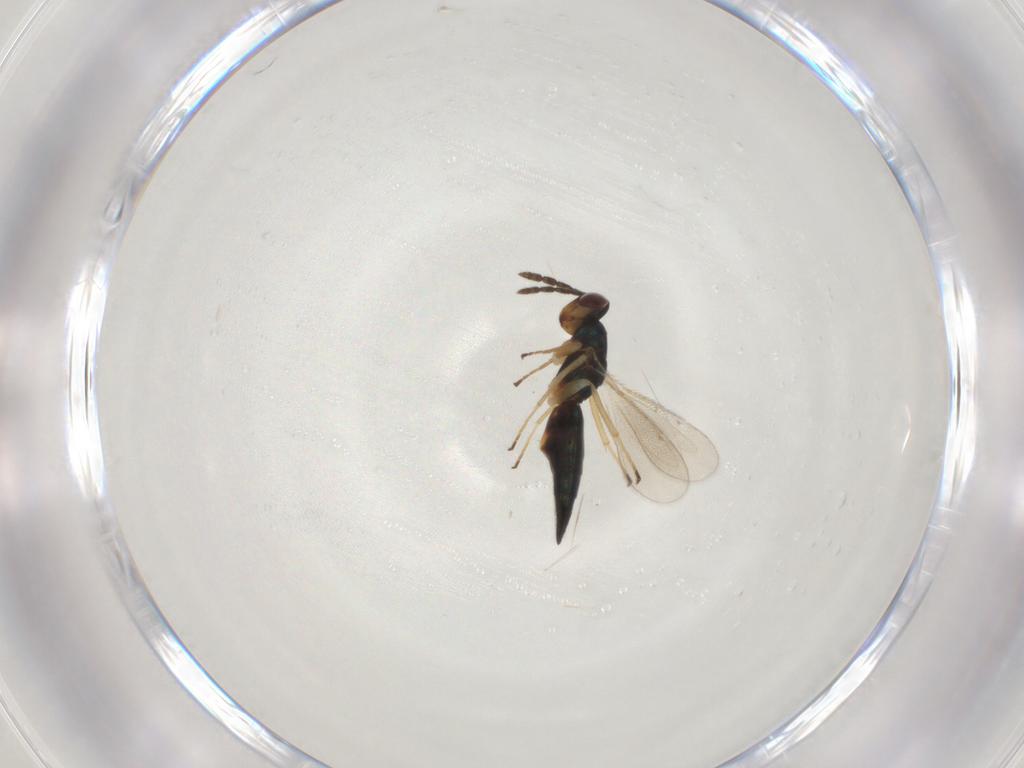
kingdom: Animalia
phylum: Arthropoda
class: Insecta
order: Hymenoptera
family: Eulophidae
